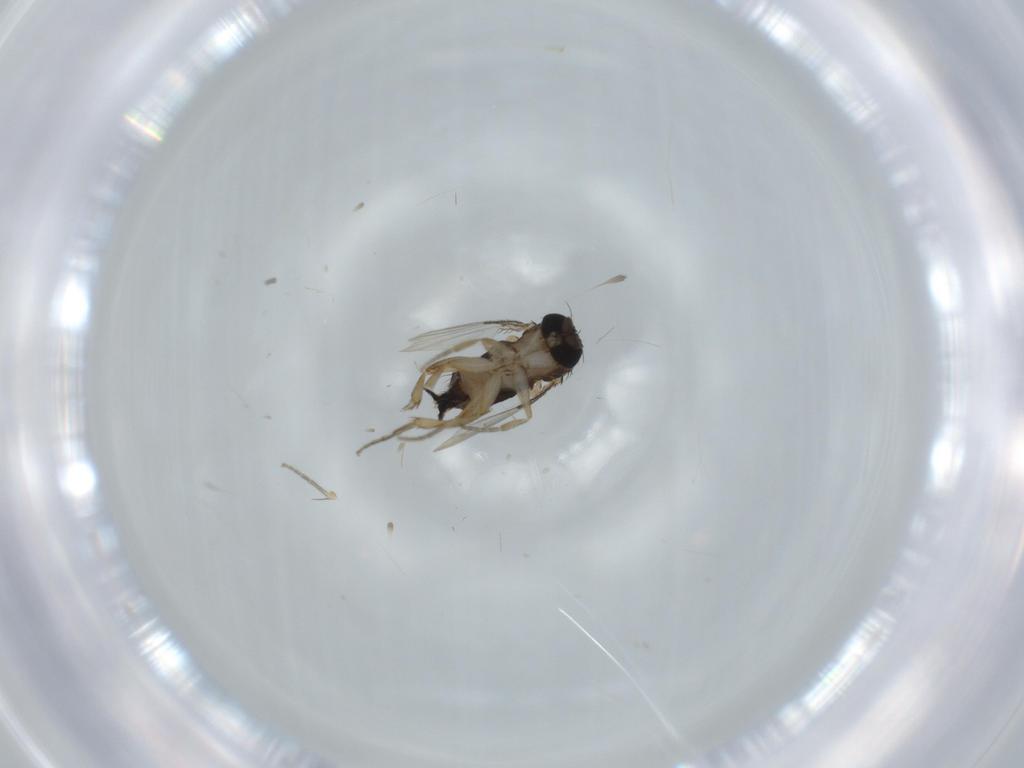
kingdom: Animalia
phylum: Arthropoda
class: Insecta
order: Diptera
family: Phoridae
